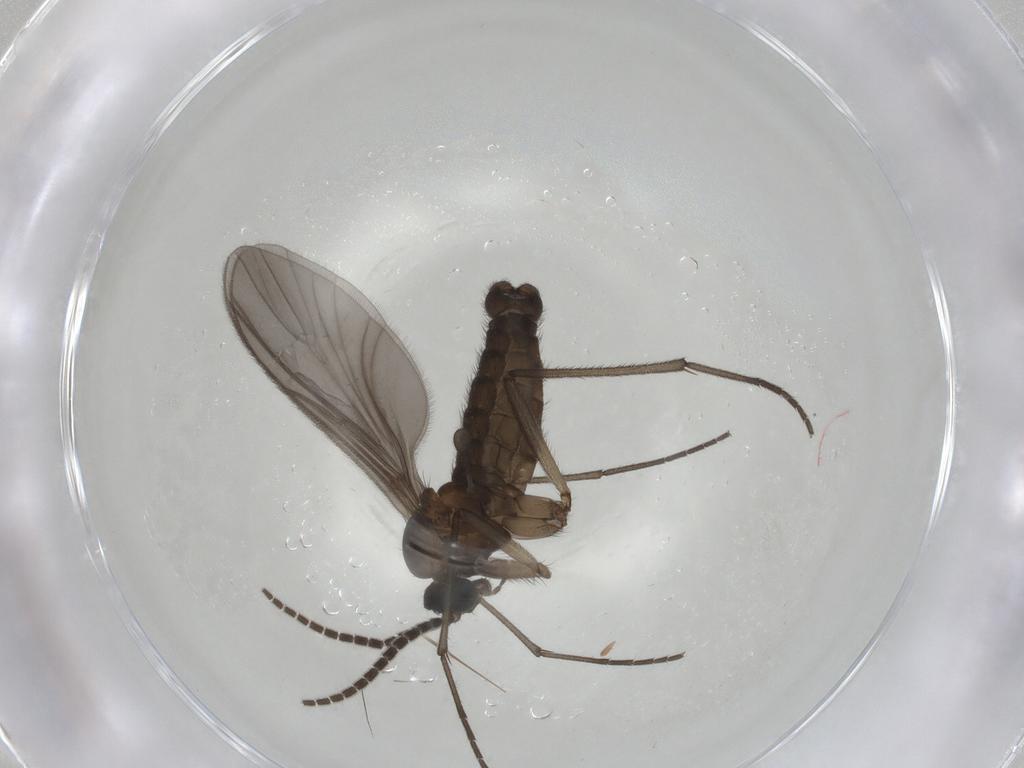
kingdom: Animalia
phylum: Arthropoda
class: Insecta
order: Diptera
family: Sciaridae
